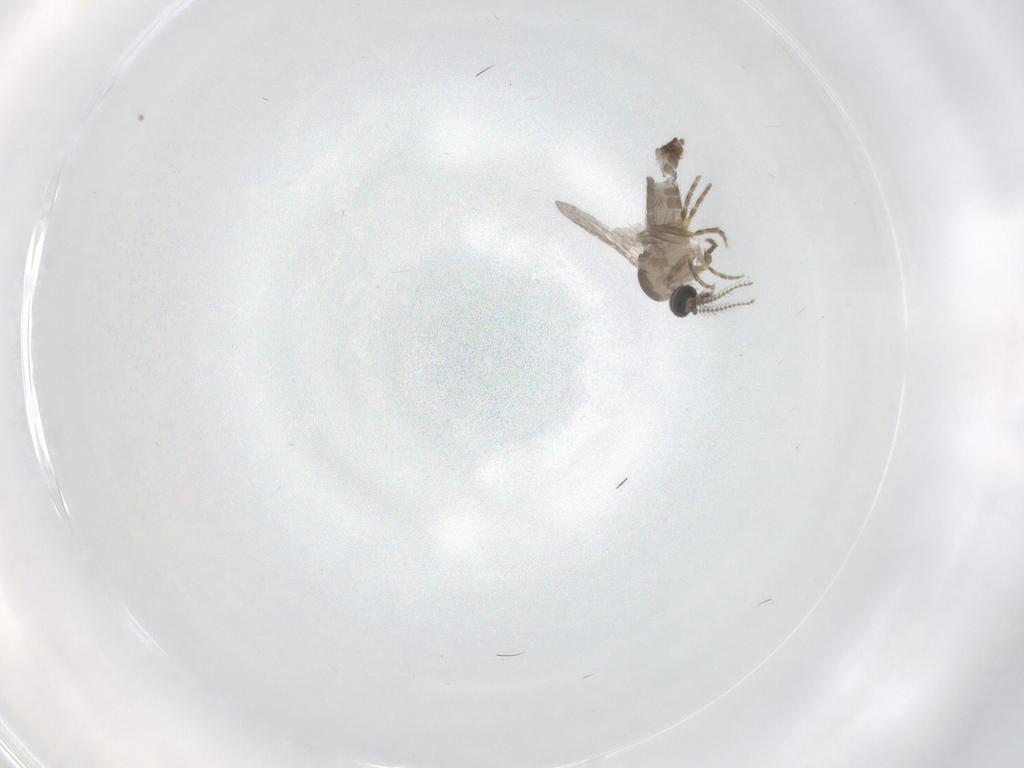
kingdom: Animalia
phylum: Arthropoda
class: Insecta
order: Diptera
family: Ceratopogonidae
